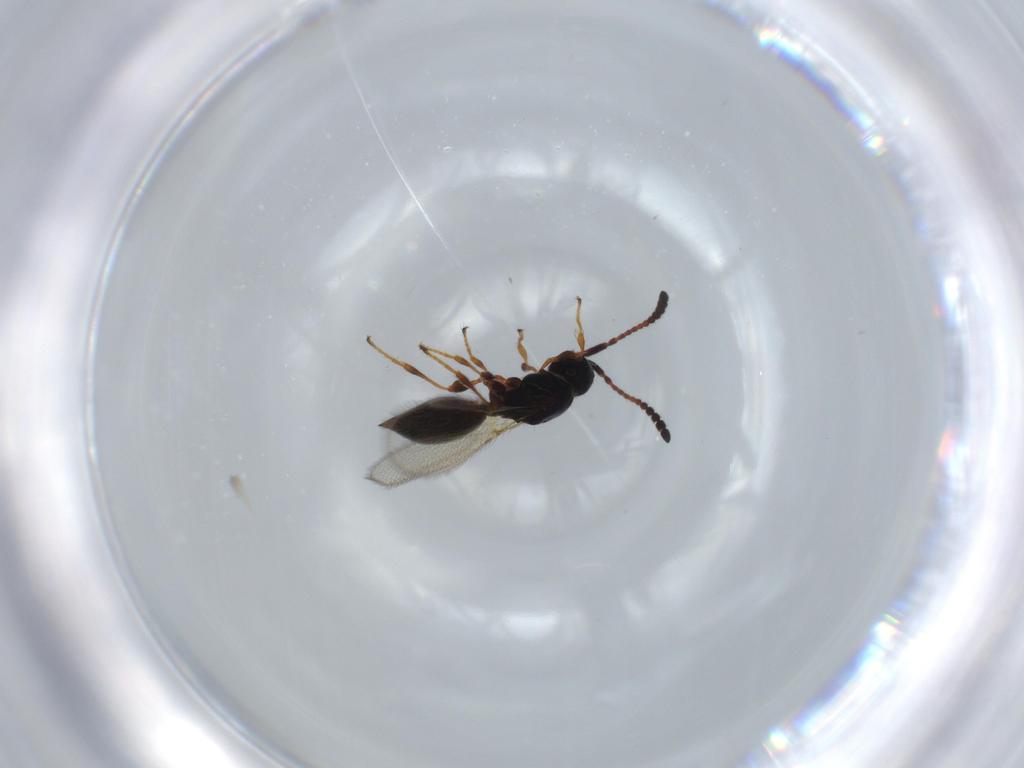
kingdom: Animalia
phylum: Arthropoda
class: Insecta
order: Hymenoptera
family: Diapriidae
